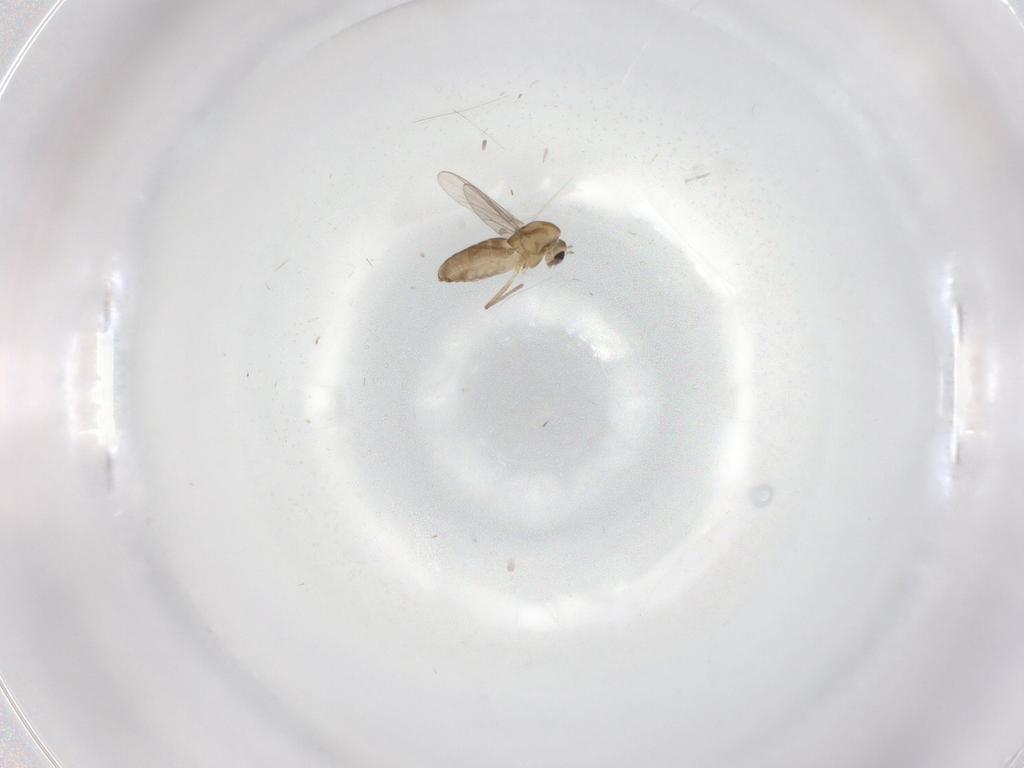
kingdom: Animalia
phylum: Arthropoda
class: Insecta
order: Diptera
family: Chironomidae
